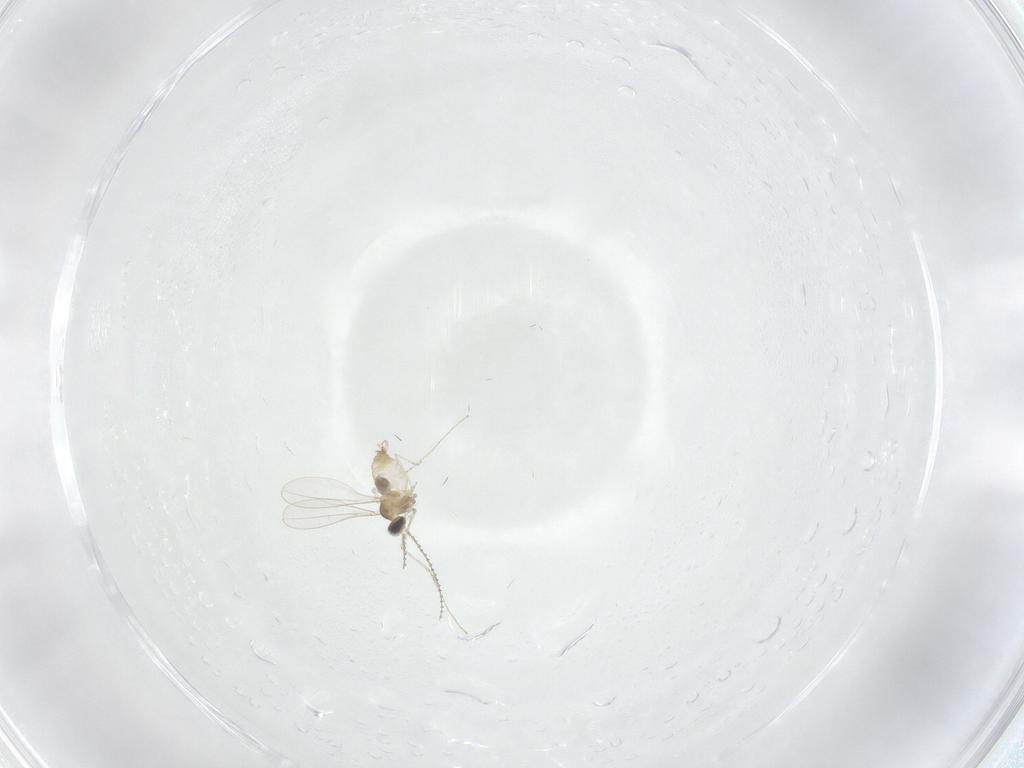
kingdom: Animalia
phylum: Arthropoda
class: Insecta
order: Diptera
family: Cecidomyiidae
